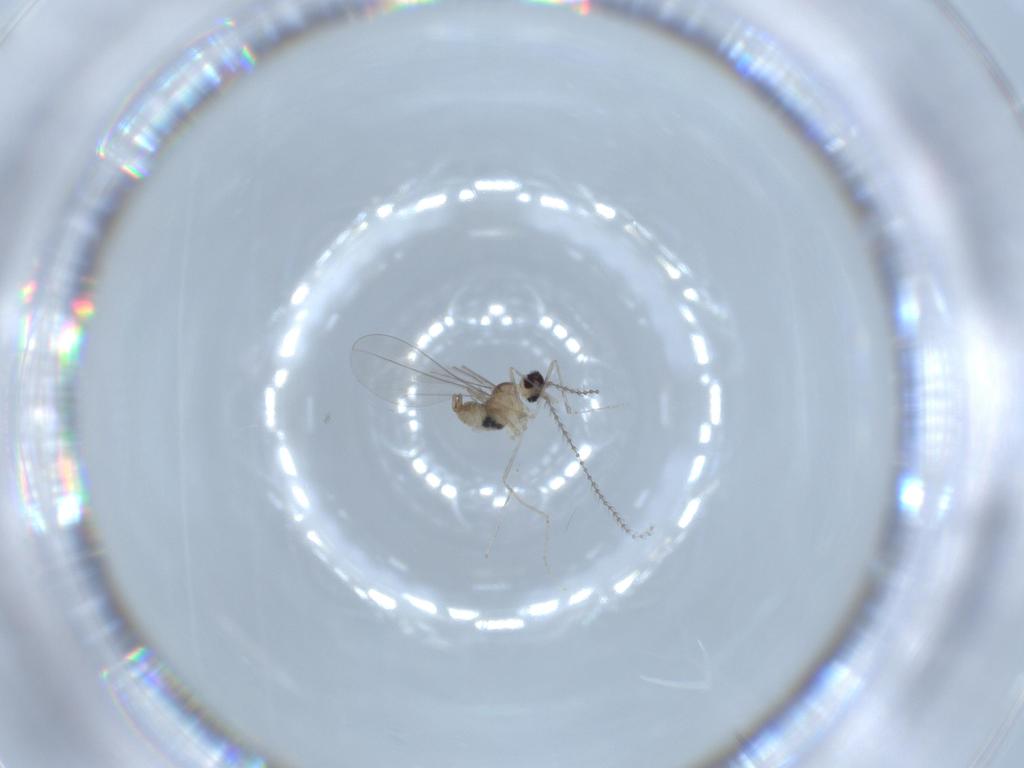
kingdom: Animalia
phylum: Arthropoda
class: Insecta
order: Diptera
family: Cecidomyiidae
